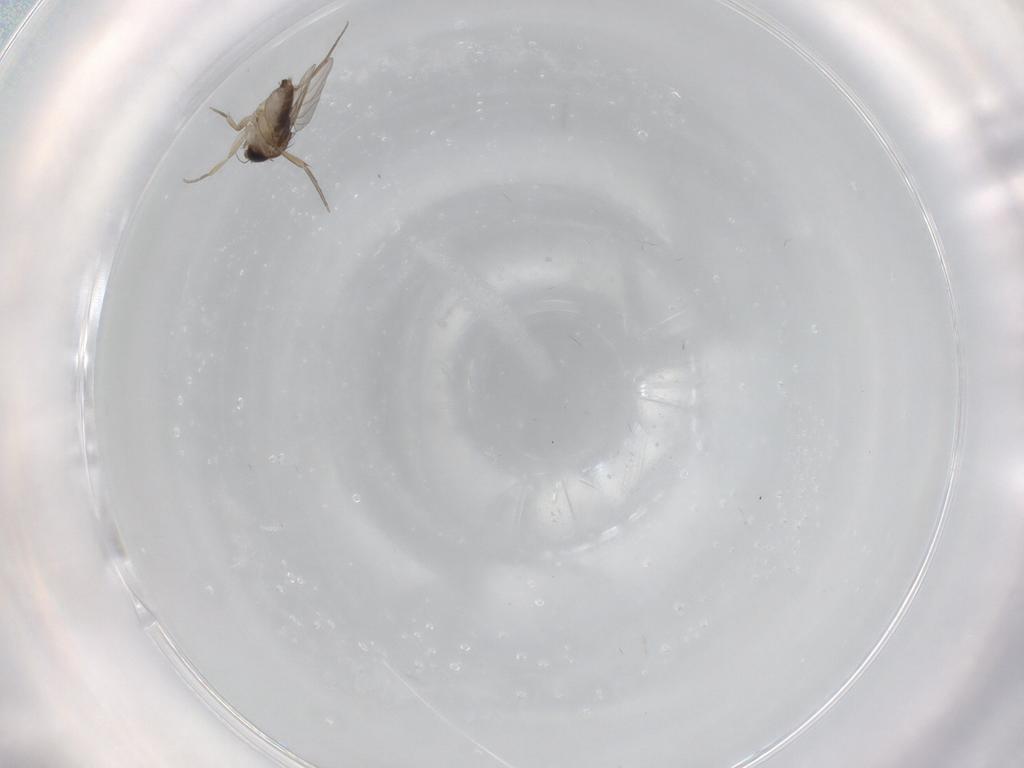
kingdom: Animalia
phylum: Arthropoda
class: Insecta
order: Diptera
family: Phoridae
